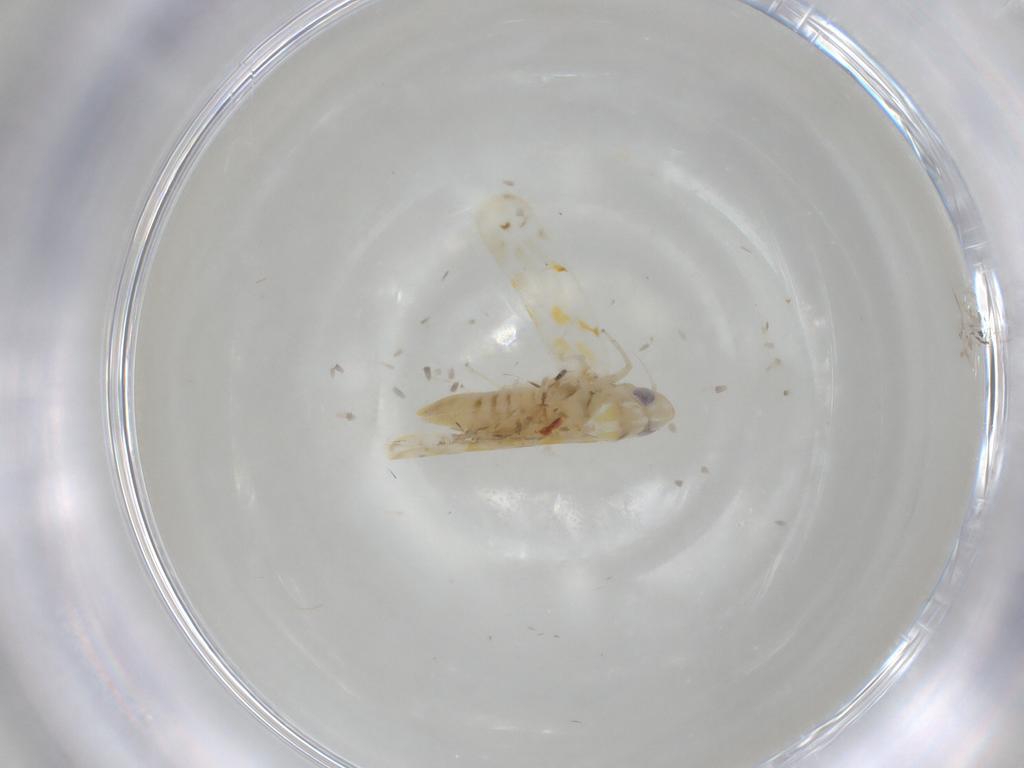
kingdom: Animalia
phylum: Arthropoda
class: Insecta
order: Hemiptera
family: Cicadellidae
